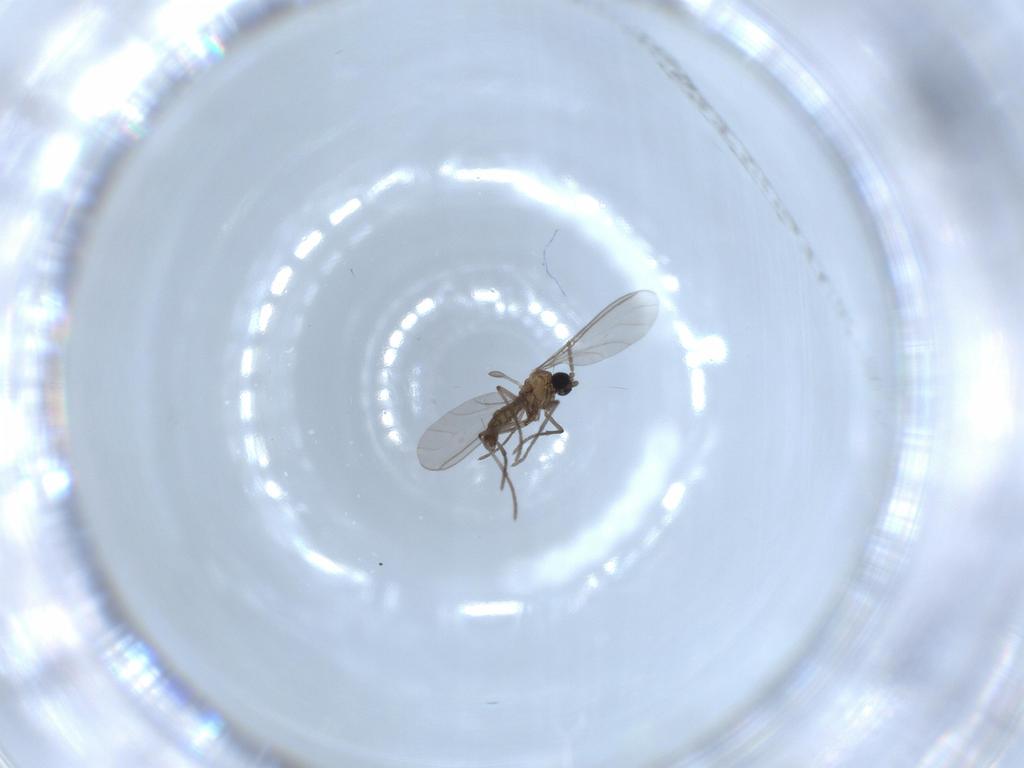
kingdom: Animalia
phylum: Arthropoda
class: Insecta
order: Diptera
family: Sciaridae
